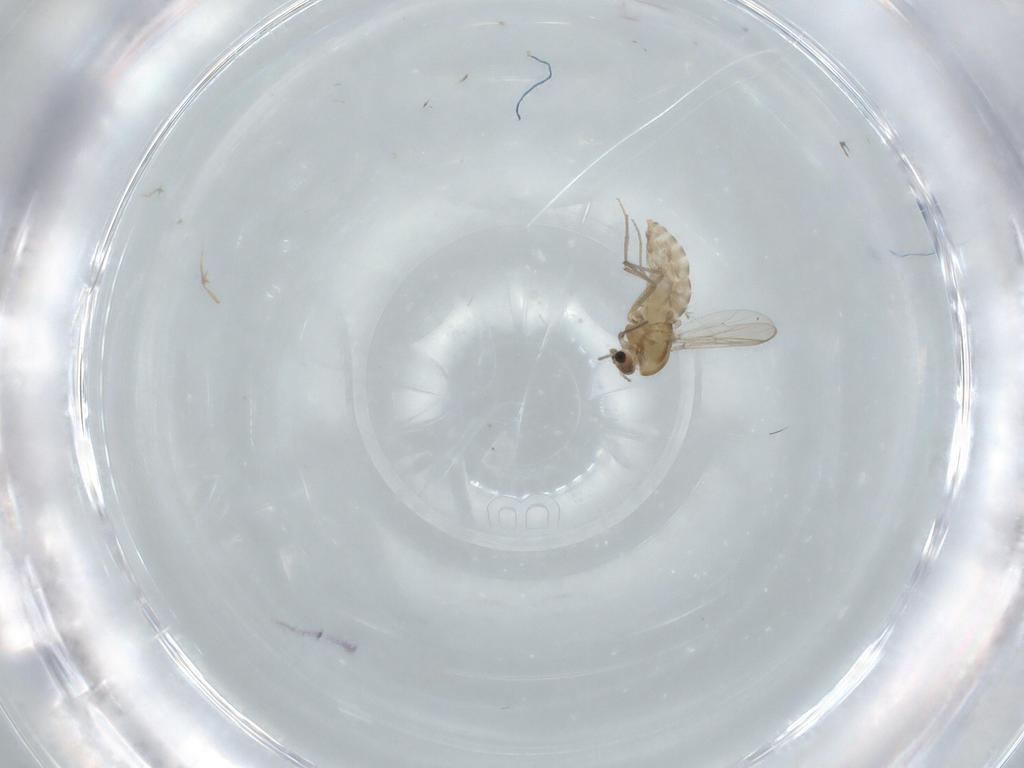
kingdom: Animalia
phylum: Arthropoda
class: Insecta
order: Diptera
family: Chironomidae
